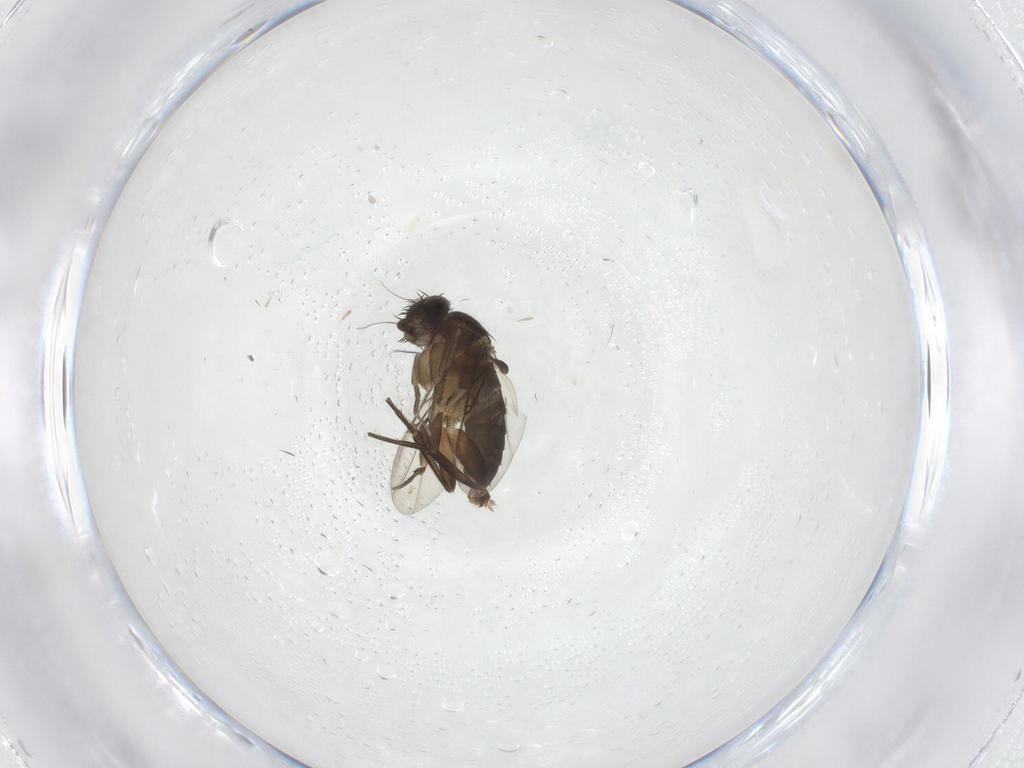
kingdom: Animalia
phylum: Arthropoda
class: Insecta
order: Diptera
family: Phoridae
